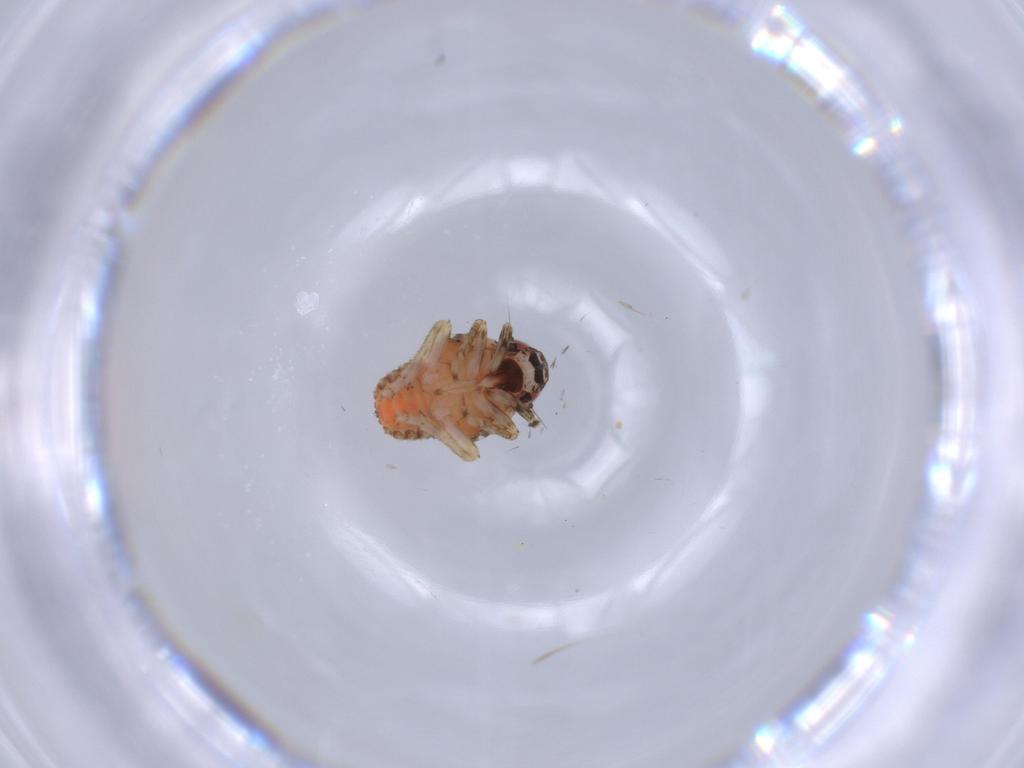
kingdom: Animalia
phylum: Arthropoda
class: Insecta
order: Hemiptera
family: Issidae
